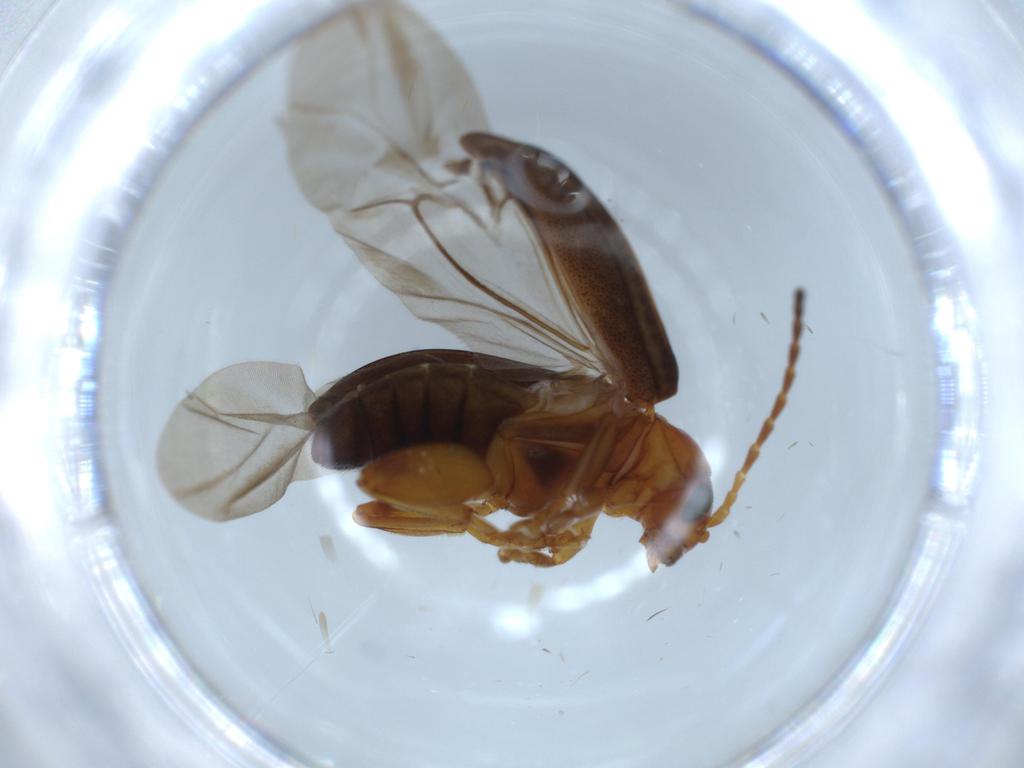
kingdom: Animalia
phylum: Arthropoda
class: Insecta
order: Coleoptera
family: Chrysomelidae
